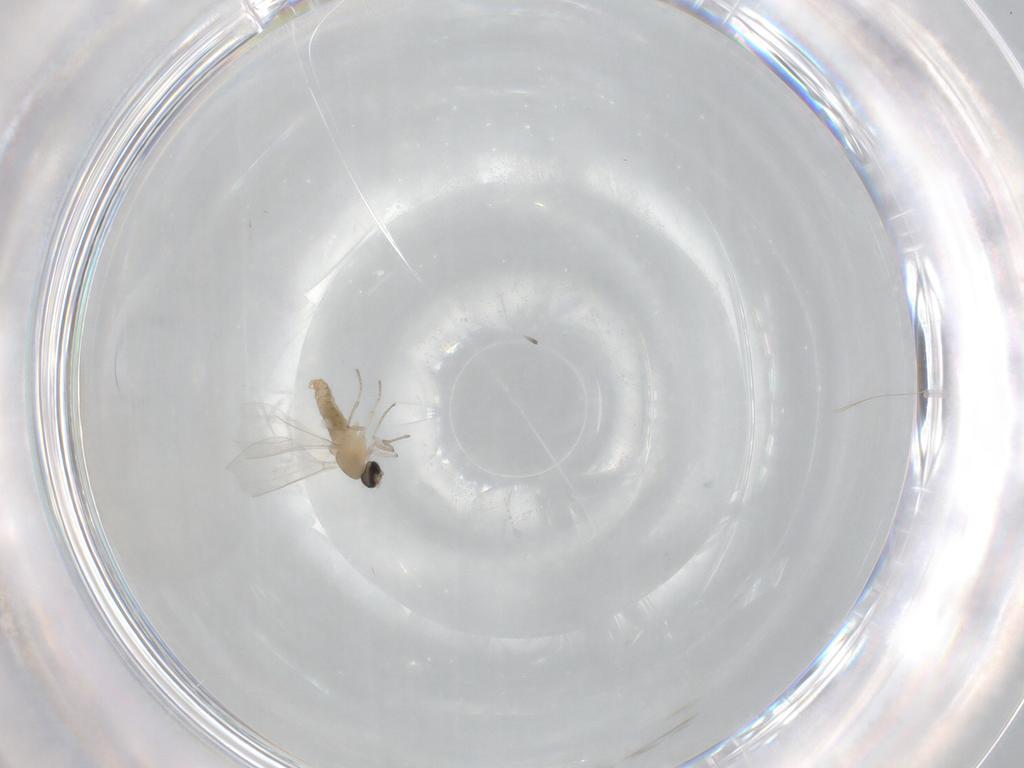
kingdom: Animalia
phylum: Arthropoda
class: Insecta
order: Diptera
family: Cecidomyiidae
